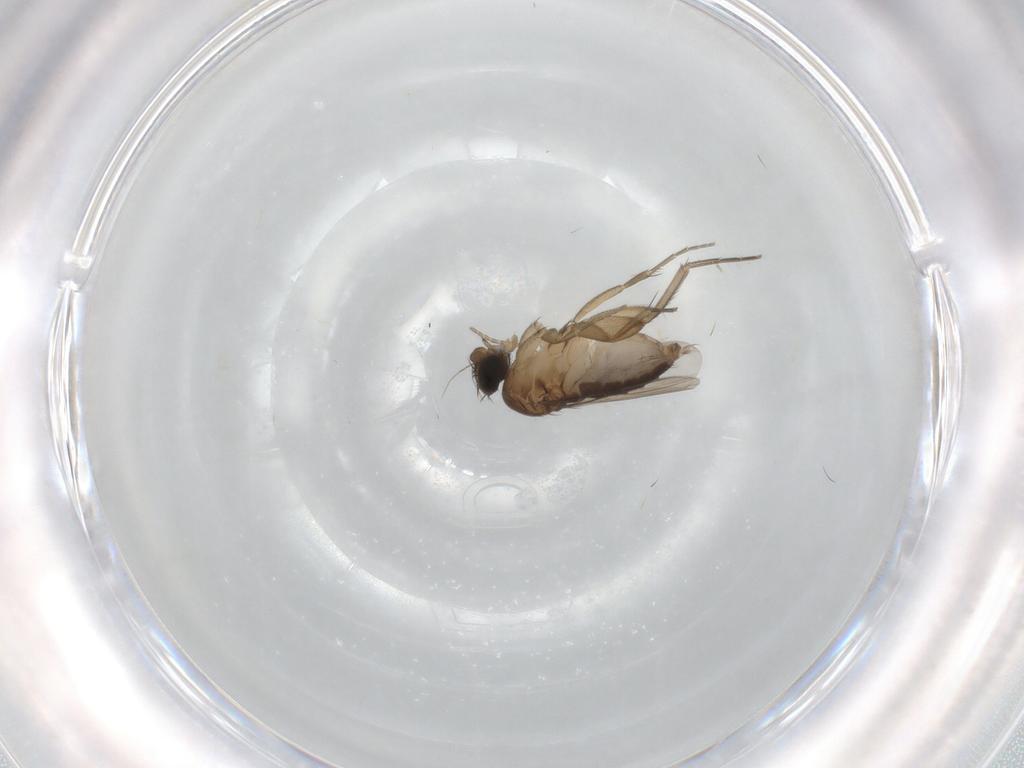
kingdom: Animalia
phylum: Arthropoda
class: Insecta
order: Diptera
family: Phoridae
